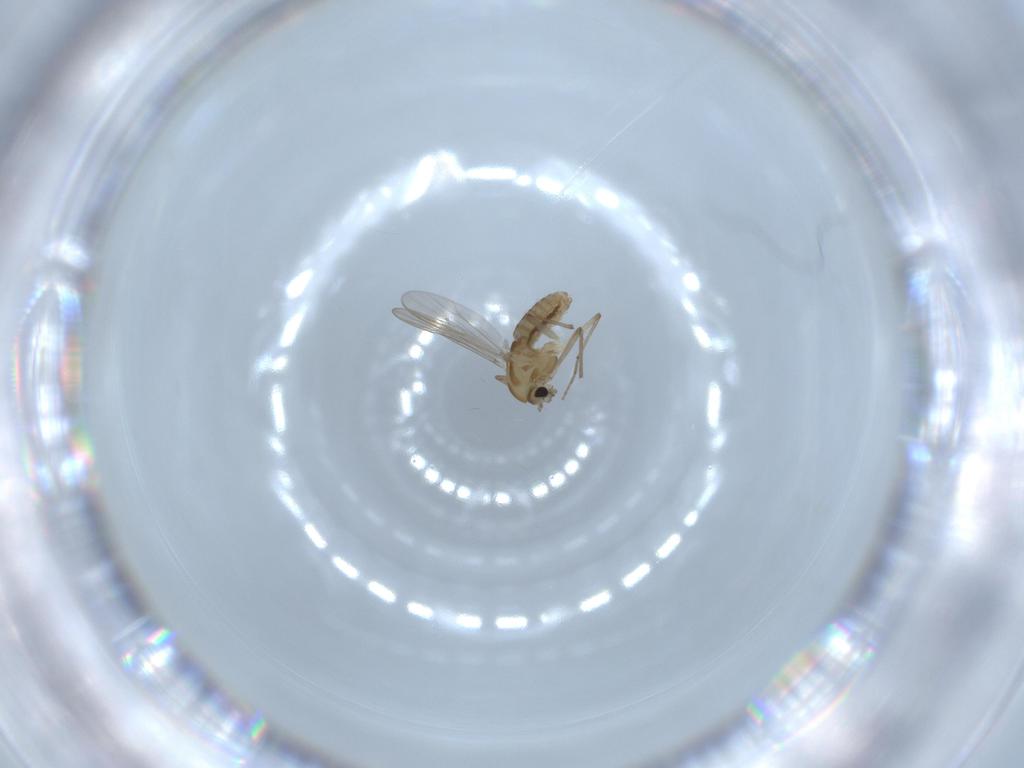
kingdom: Animalia
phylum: Arthropoda
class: Insecta
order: Diptera
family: Chironomidae
